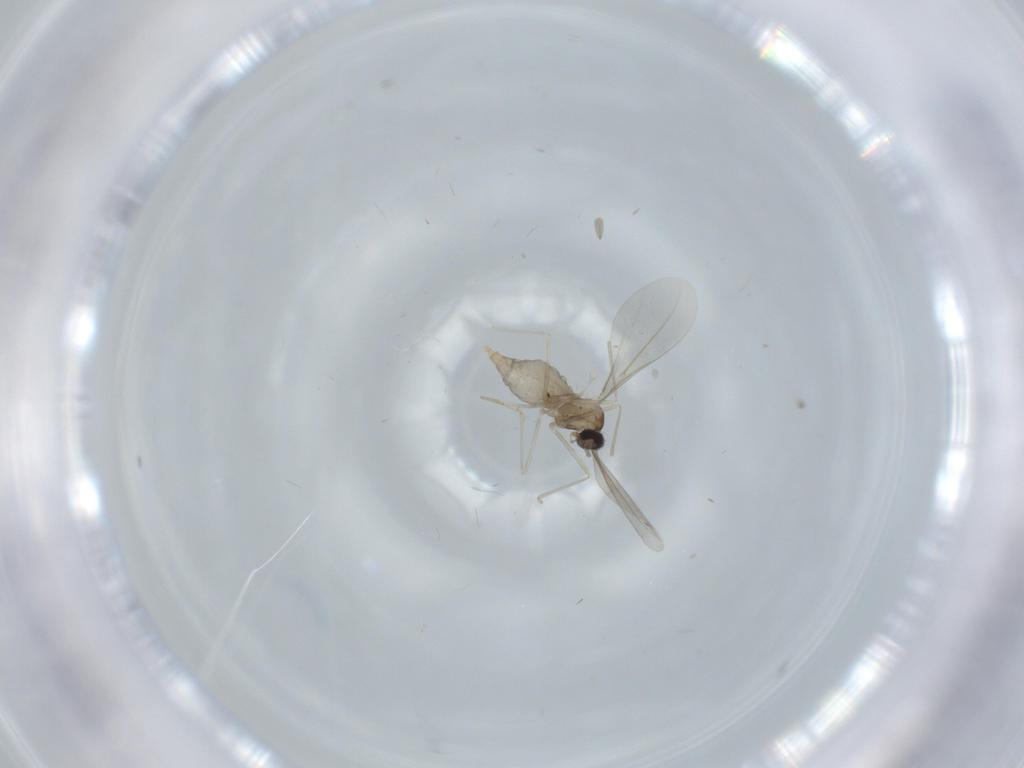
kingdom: Animalia
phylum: Arthropoda
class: Insecta
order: Diptera
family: Cecidomyiidae
